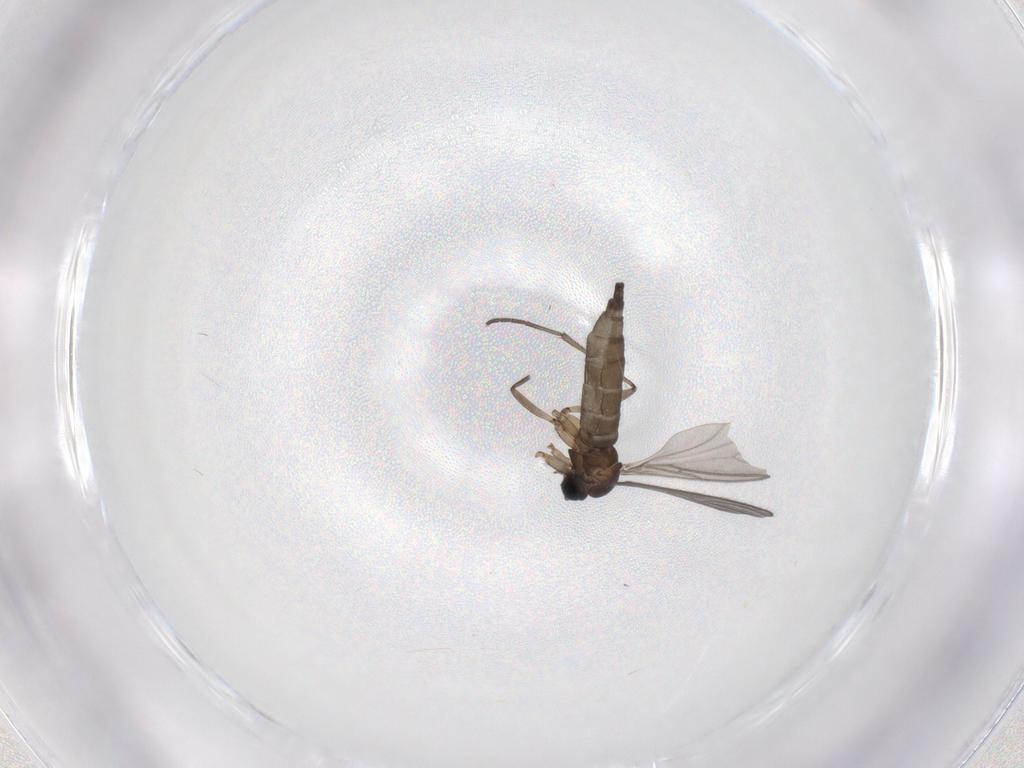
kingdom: Animalia
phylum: Arthropoda
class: Insecta
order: Diptera
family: Sciaridae
